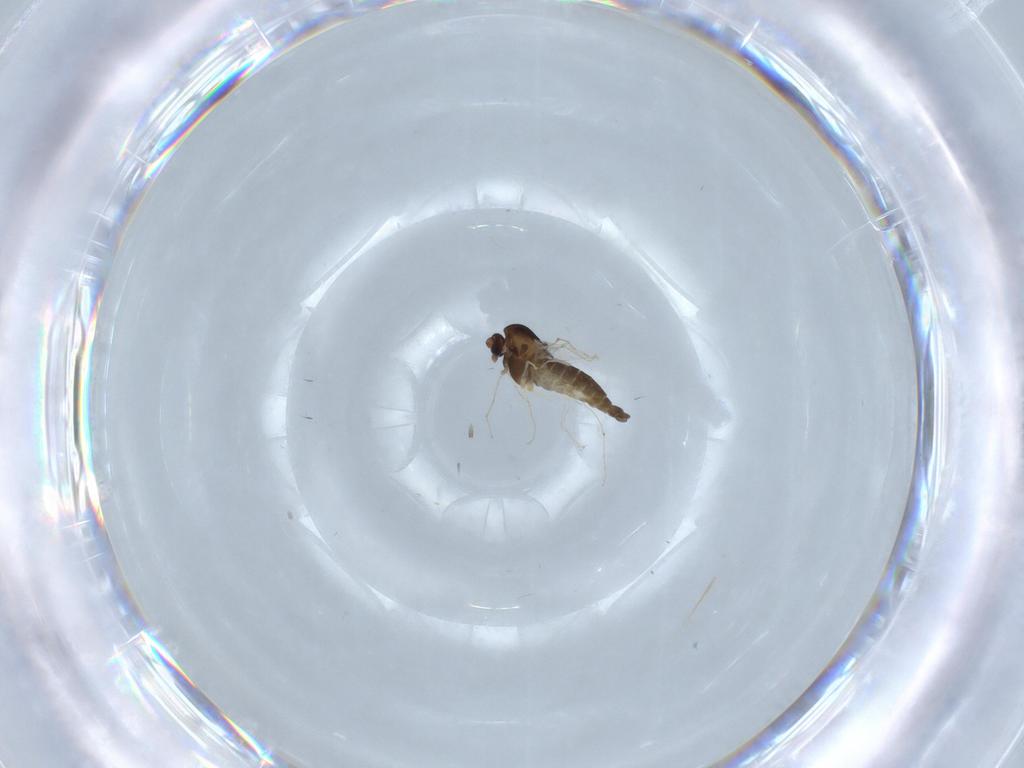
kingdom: Animalia
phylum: Arthropoda
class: Insecta
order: Diptera
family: Chironomidae
